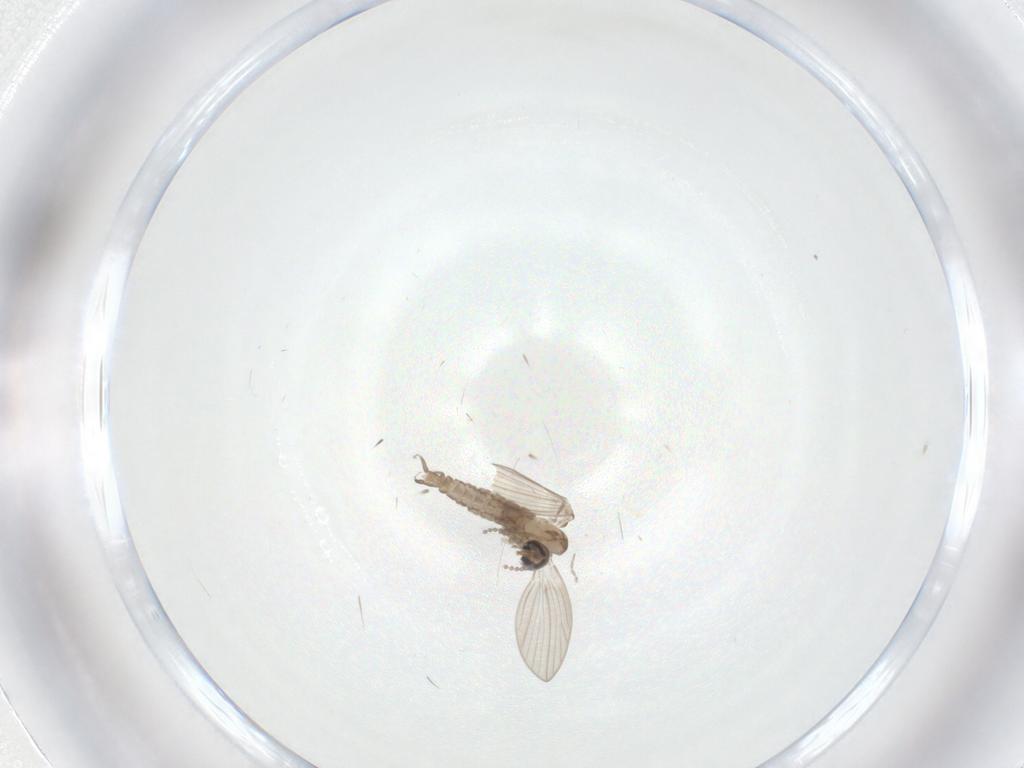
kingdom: Animalia
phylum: Arthropoda
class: Insecta
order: Diptera
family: Psychodidae
